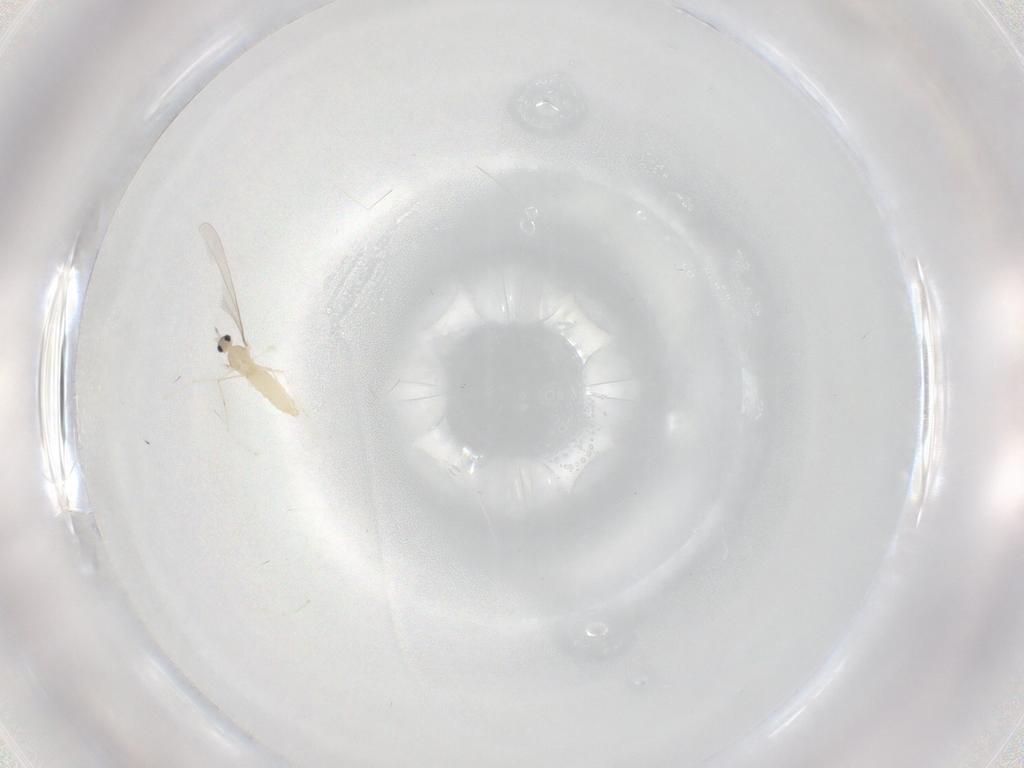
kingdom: Animalia
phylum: Arthropoda
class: Insecta
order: Diptera
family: Cecidomyiidae
